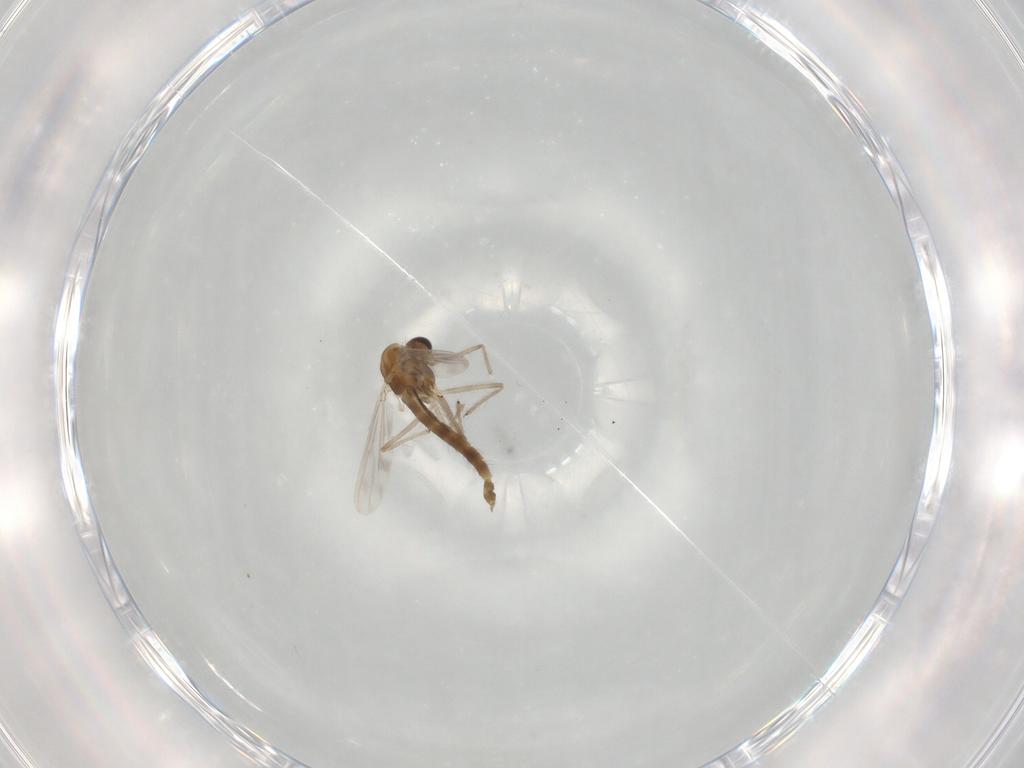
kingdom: Animalia
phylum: Arthropoda
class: Insecta
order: Diptera
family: Chironomidae
